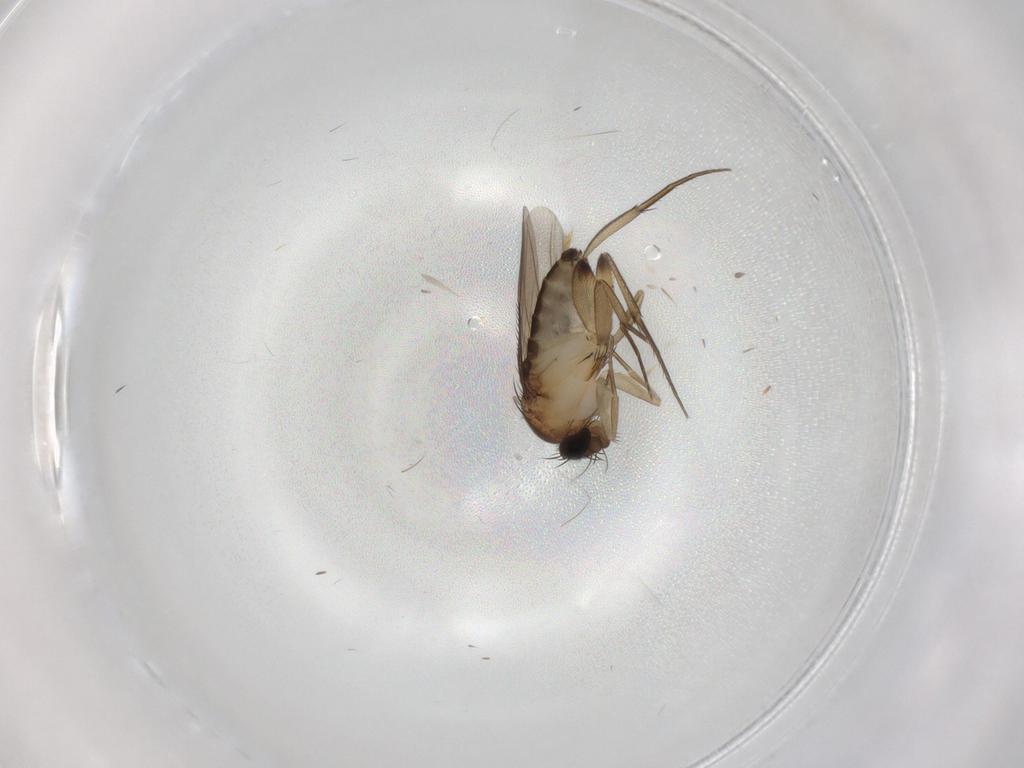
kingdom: Animalia
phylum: Arthropoda
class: Insecta
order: Diptera
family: Phoridae
